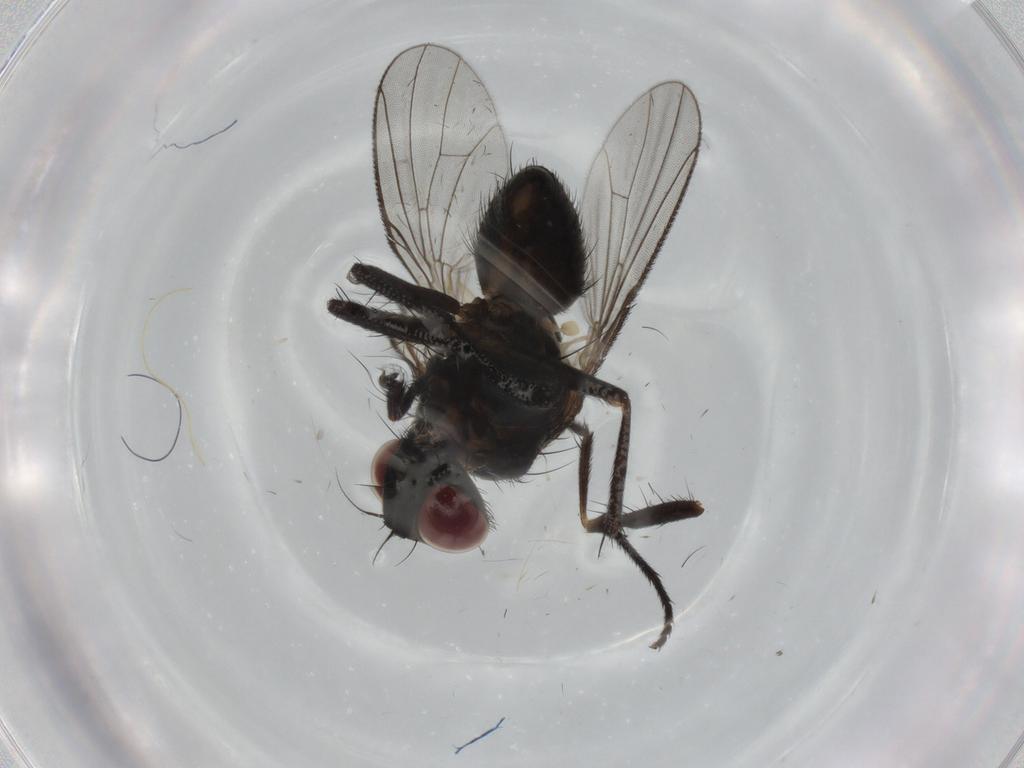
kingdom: Animalia
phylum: Arthropoda
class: Insecta
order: Diptera
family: Muscidae
